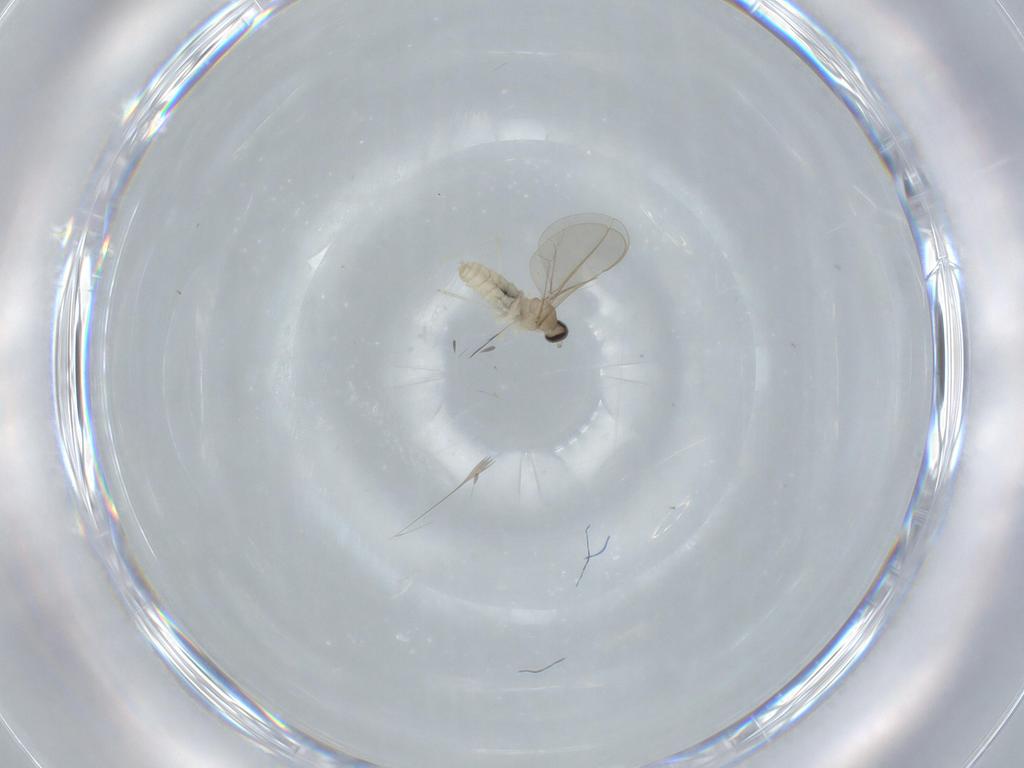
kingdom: Animalia
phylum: Arthropoda
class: Insecta
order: Diptera
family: Cecidomyiidae
